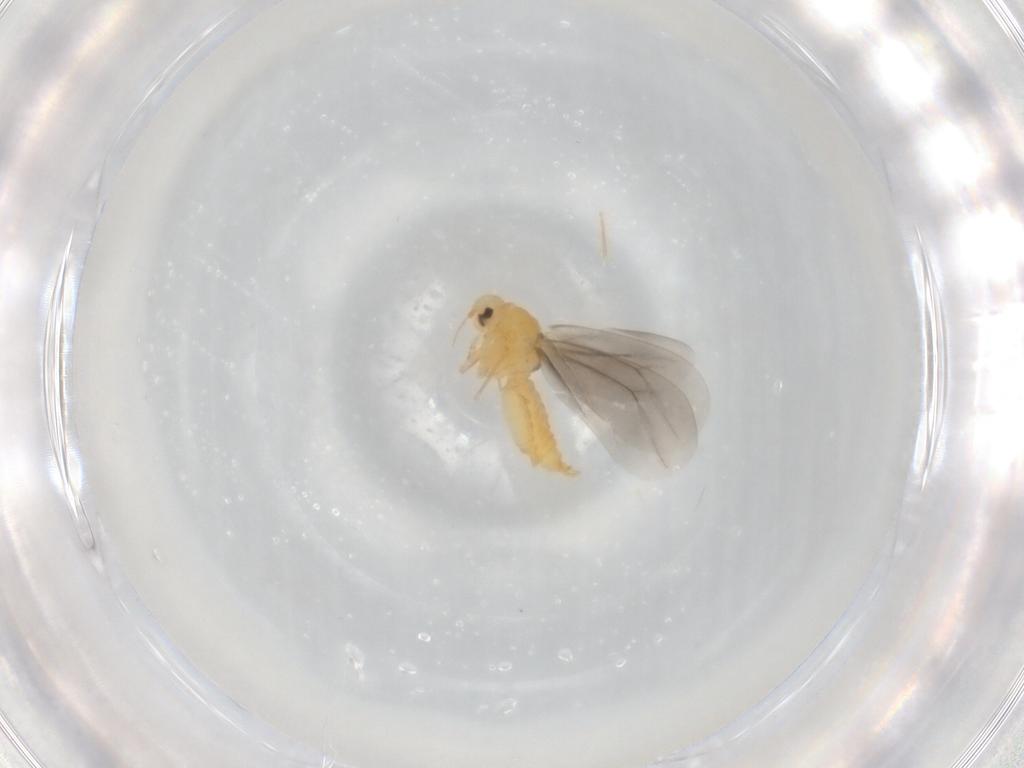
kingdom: Animalia
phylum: Arthropoda
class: Insecta
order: Hemiptera
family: Aleyrodidae
